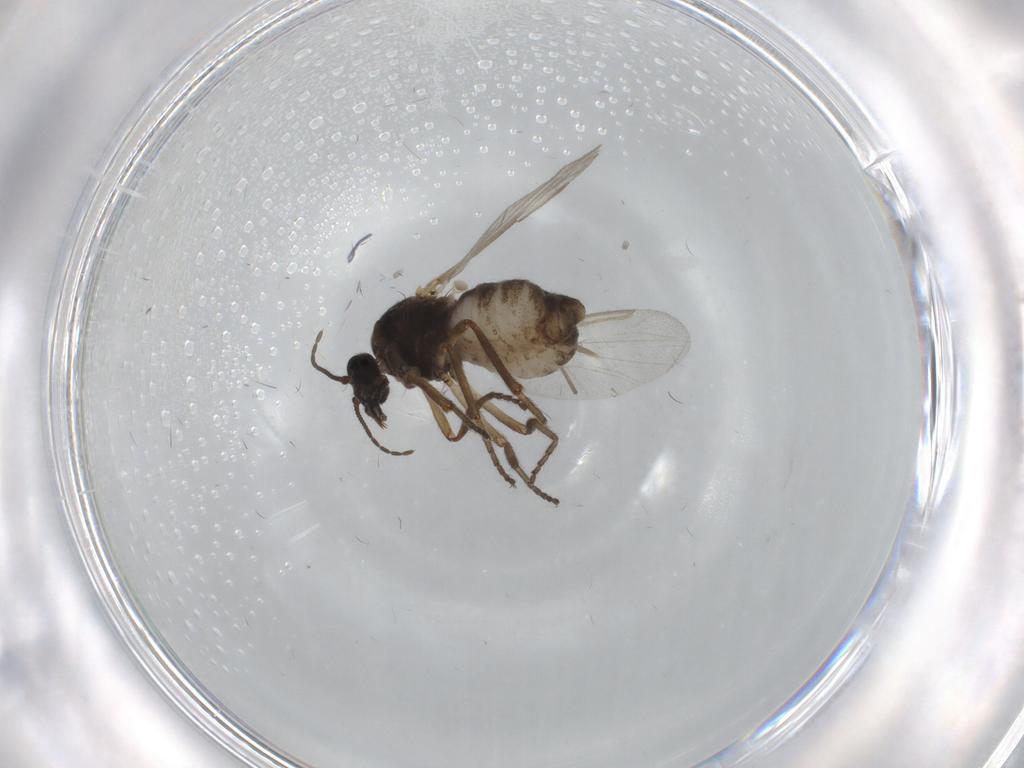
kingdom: Animalia
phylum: Arthropoda
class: Insecta
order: Diptera
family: Ceratopogonidae
